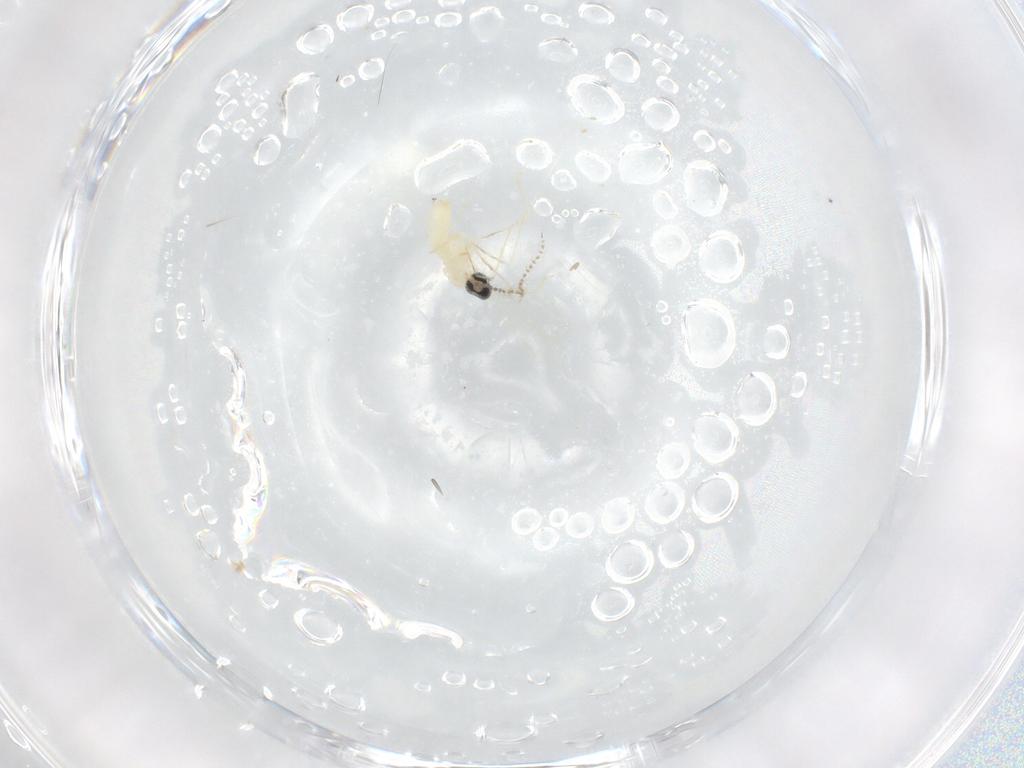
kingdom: Animalia
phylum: Arthropoda
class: Insecta
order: Diptera
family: Cecidomyiidae
